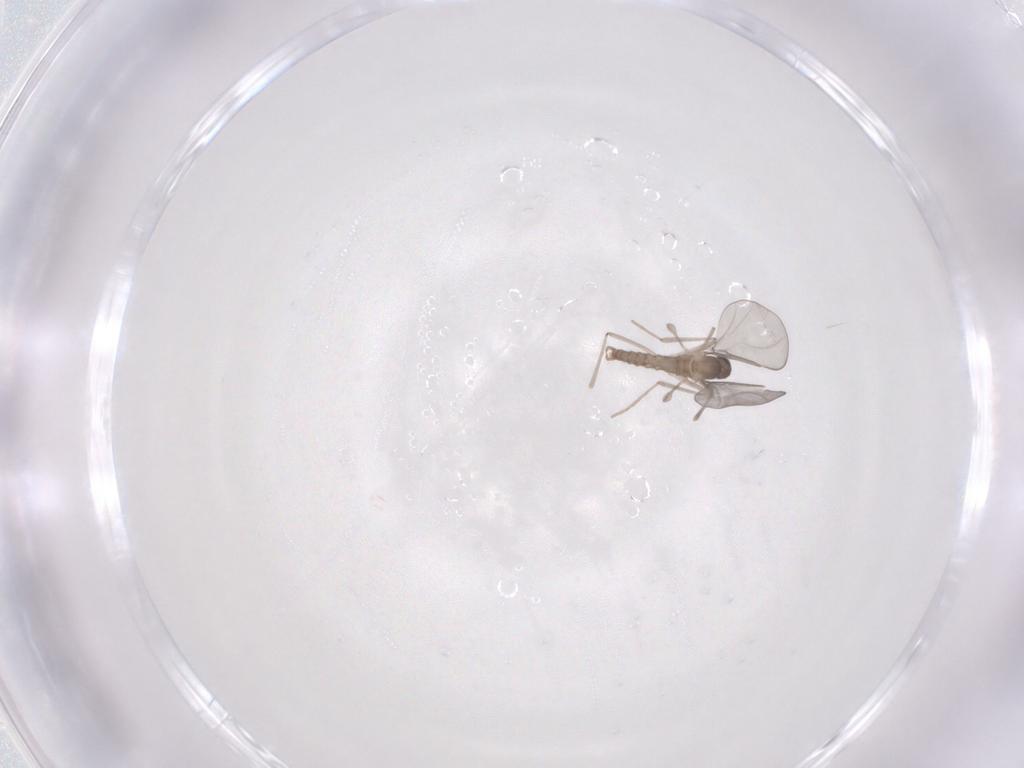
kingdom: Animalia
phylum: Arthropoda
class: Insecta
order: Diptera
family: Cecidomyiidae
